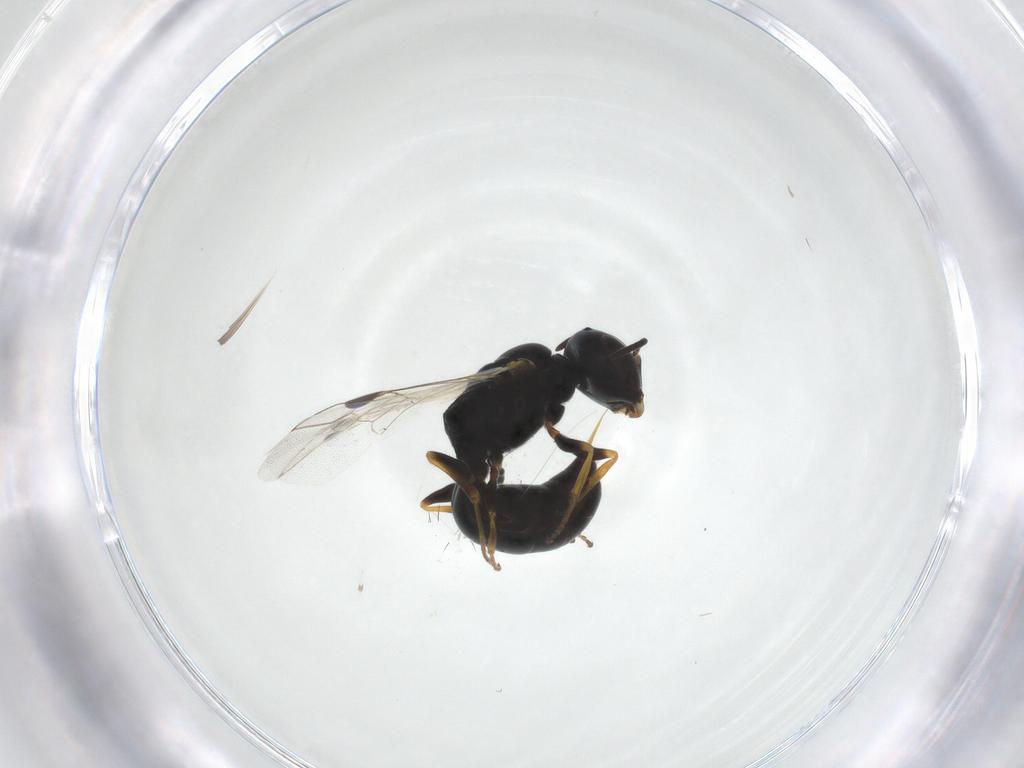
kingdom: Animalia
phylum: Arthropoda
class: Insecta
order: Hymenoptera
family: Crabronidae
